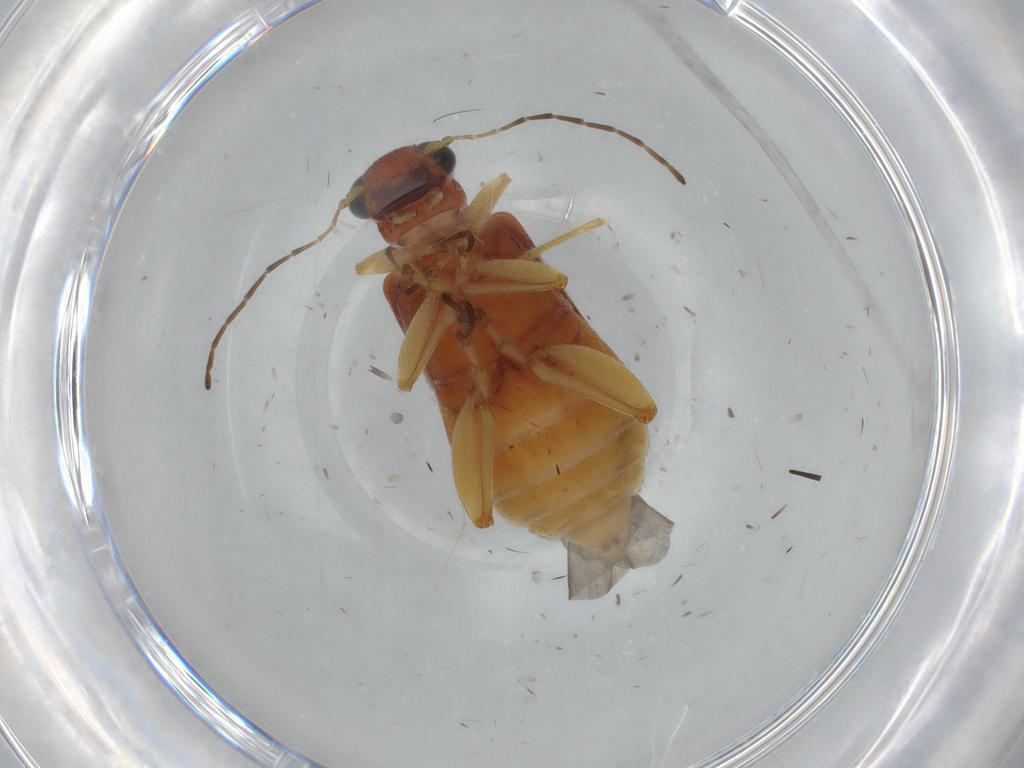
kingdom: Animalia
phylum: Arthropoda
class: Insecta
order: Coleoptera
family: Chrysomelidae
